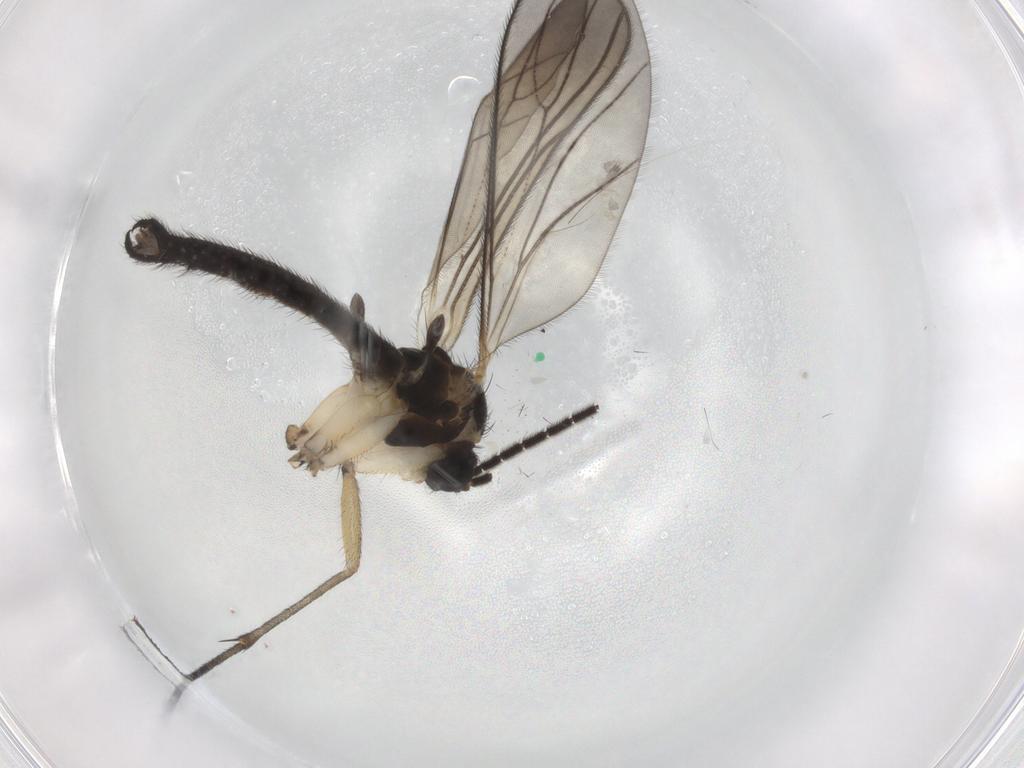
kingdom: Animalia
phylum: Arthropoda
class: Insecta
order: Diptera
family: Sciaridae
